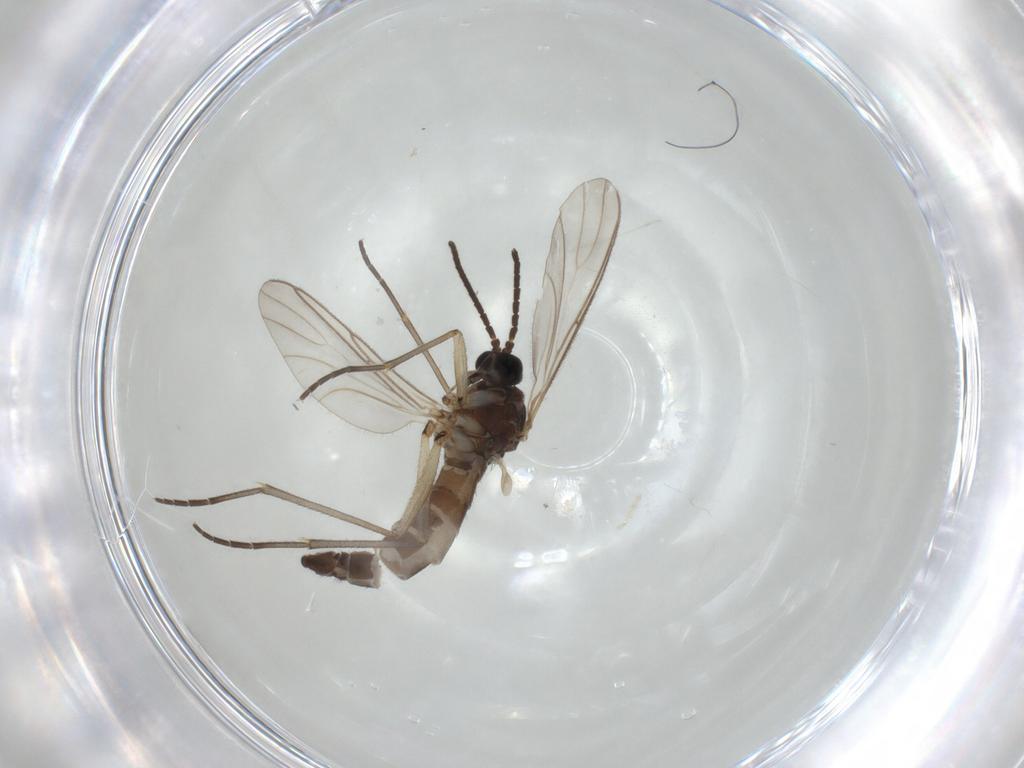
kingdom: Animalia
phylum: Arthropoda
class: Insecta
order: Diptera
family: Sciaridae
